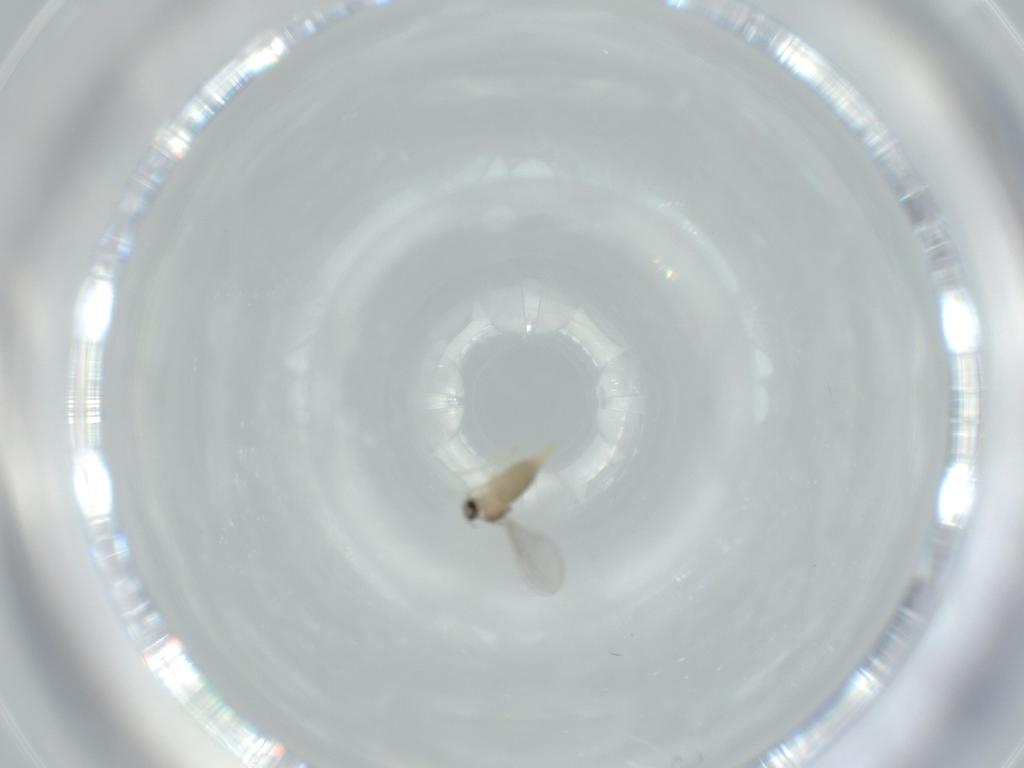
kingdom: Animalia
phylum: Arthropoda
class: Insecta
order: Diptera
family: Cecidomyiidae
